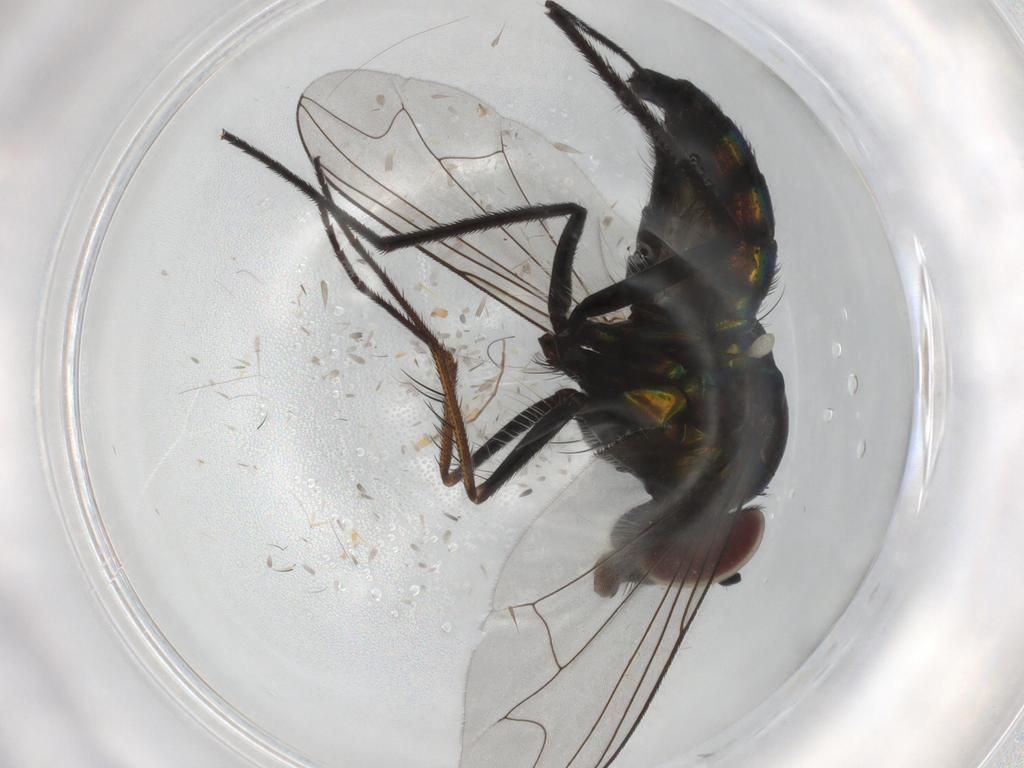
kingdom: Animalia
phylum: Arthropoda
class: Insecta
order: Diptera
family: Dolichopodidae
